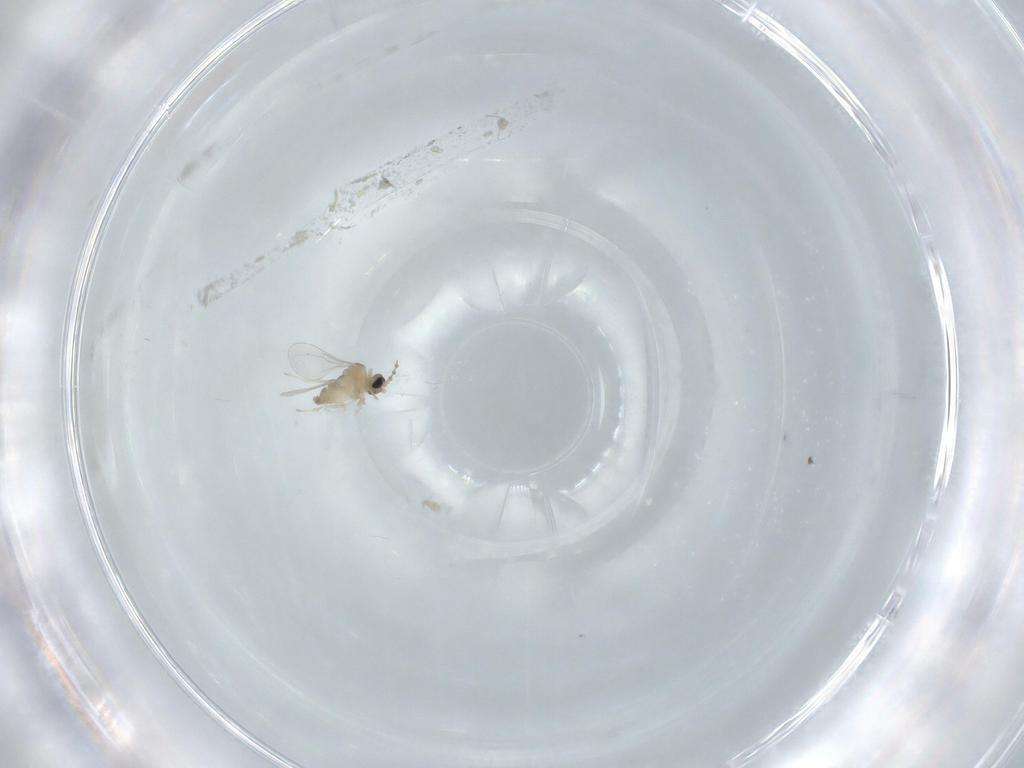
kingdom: Animalia
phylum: Arthropoda
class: Insecta
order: Diptera
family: Cecidomyiidae
